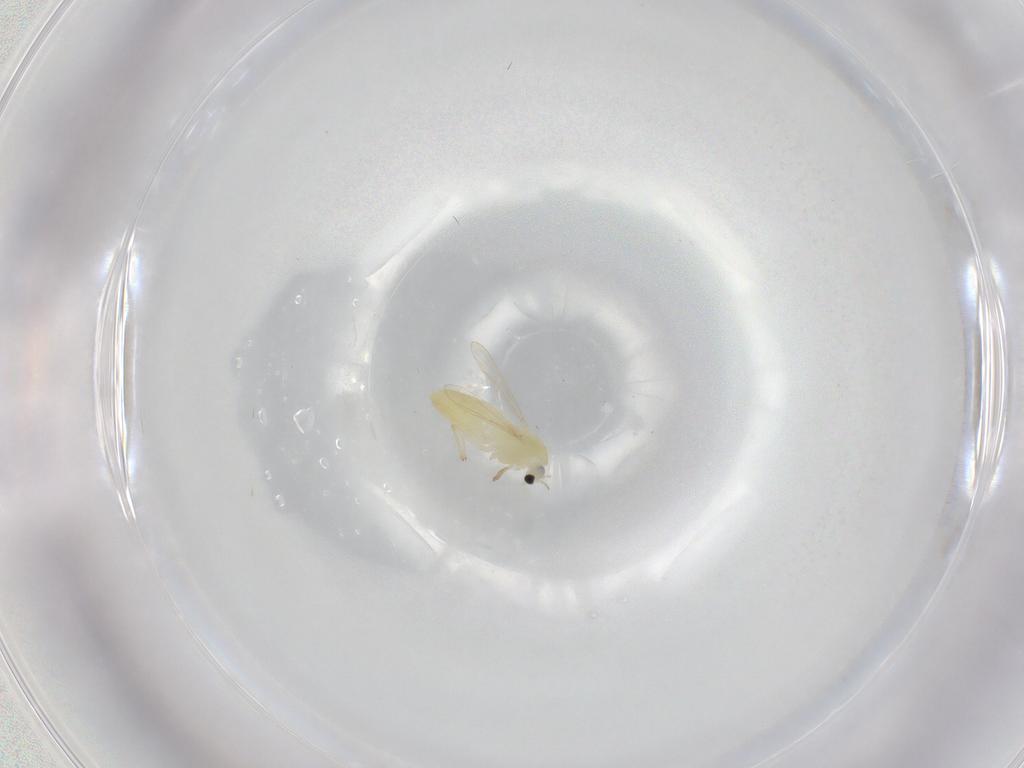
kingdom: Animalia
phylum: Arthropoda
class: Insecta
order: Diptera
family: Chironomidae
